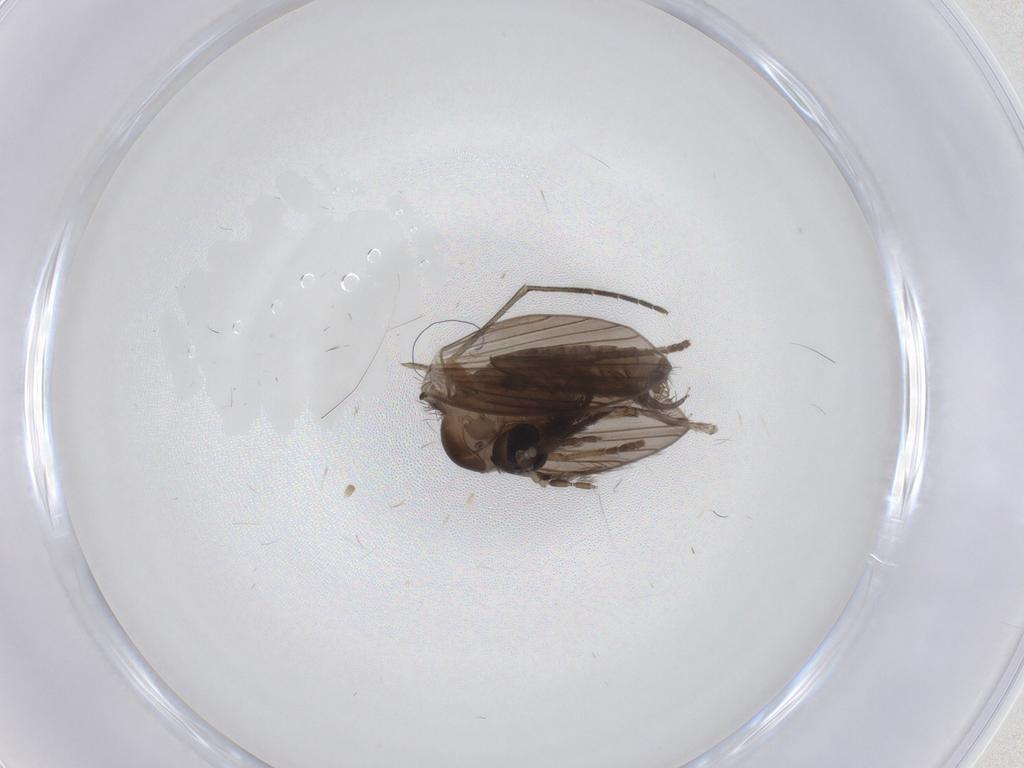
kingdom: Animalia
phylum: Arthropoda
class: Insecta
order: Diptera
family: Psychodidae
